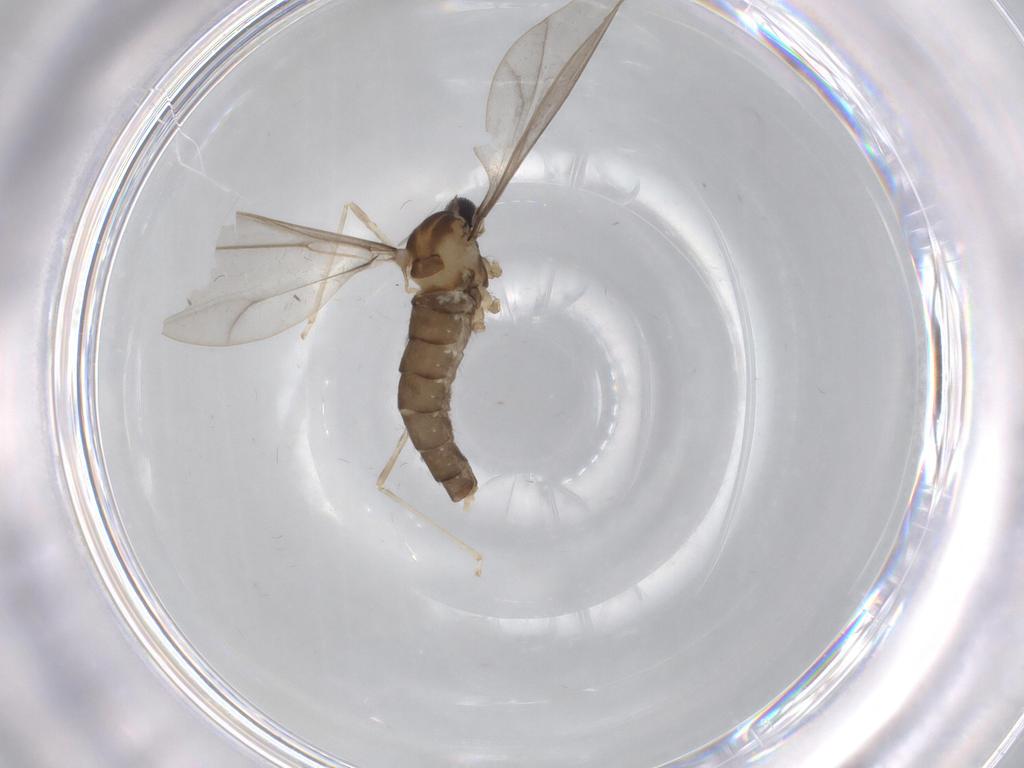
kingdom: Animalia
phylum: Arthropoda
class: Insecta
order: Diptera
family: Cecidomyiidae
